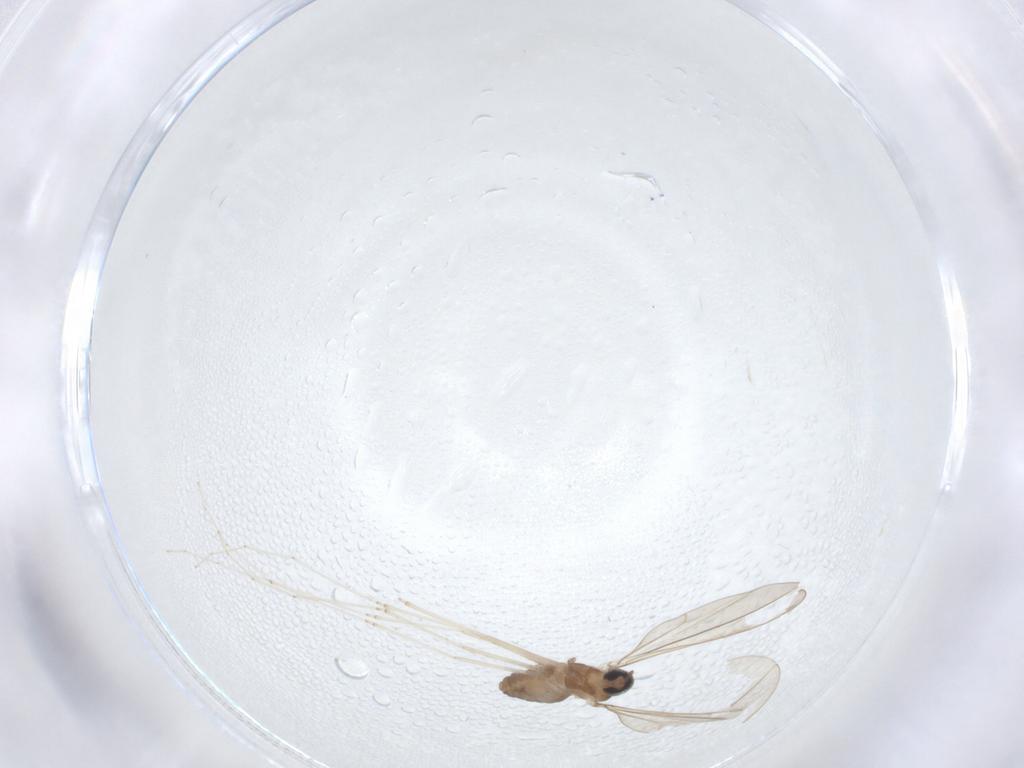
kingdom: Animalia
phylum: Arthropoda
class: Insecta
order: Diptera
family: Cecidomyiidae
